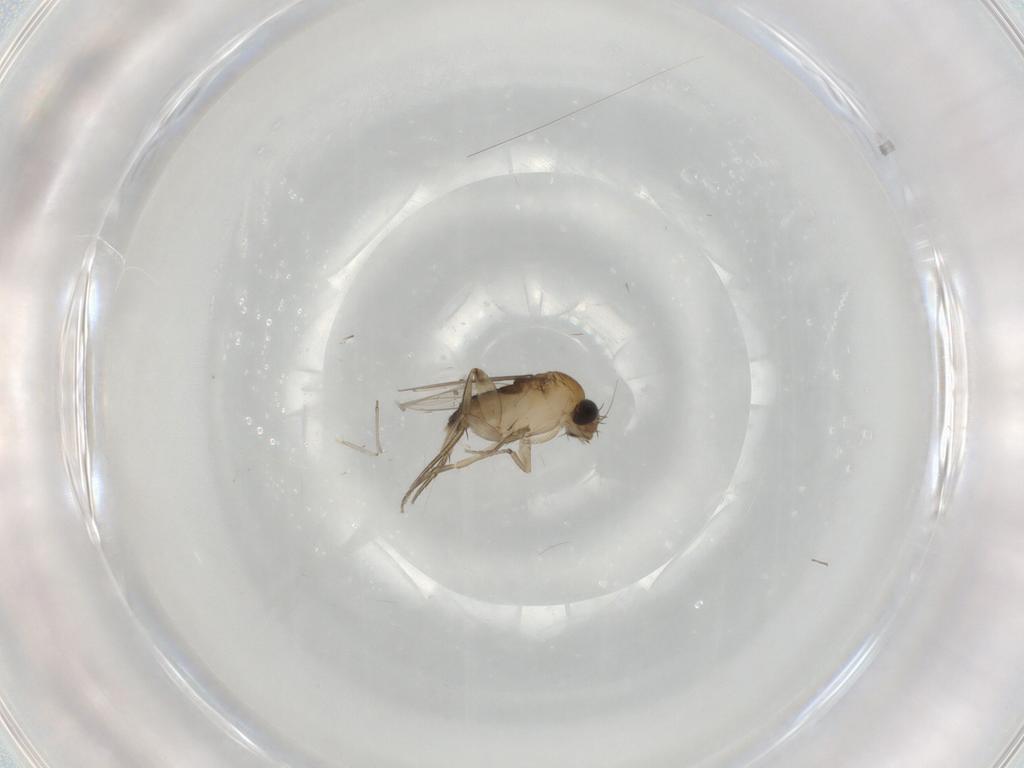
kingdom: Animalia
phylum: Arthropoda
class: Insecta
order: Diptera
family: Phoridae
